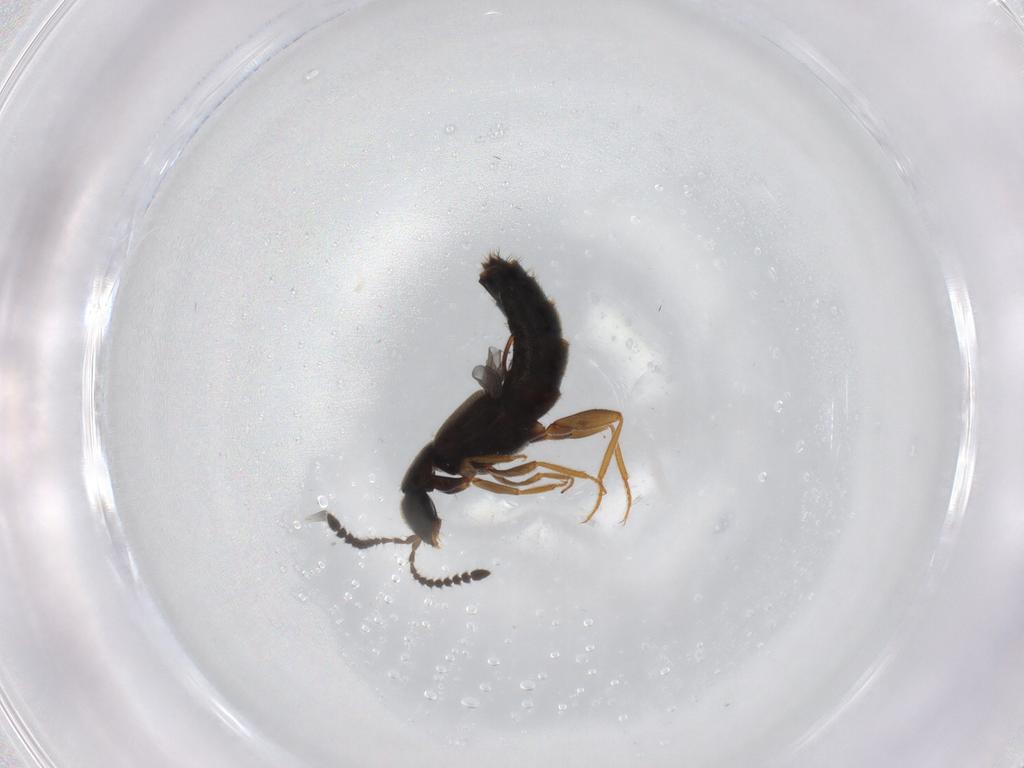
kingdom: Animalia
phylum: Arthropoda
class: Insecta
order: Coleoptera
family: Staphylinidae
